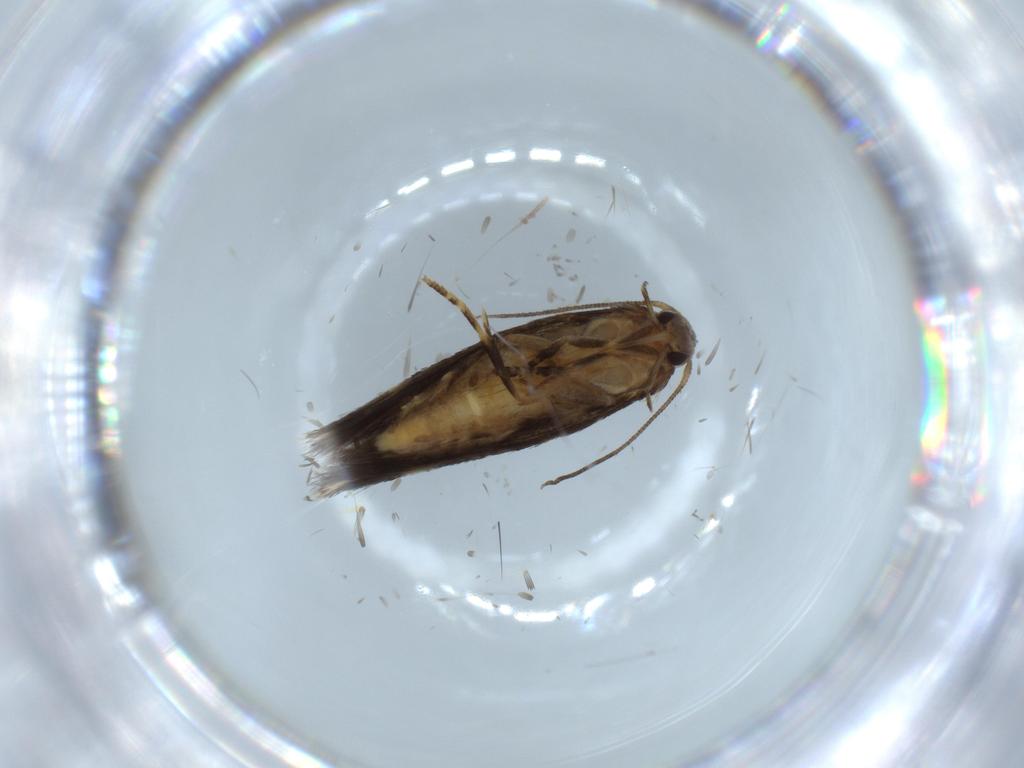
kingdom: Animalia
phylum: Arthropoda
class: Insecta
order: Lepidoptera
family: Elachistidae
